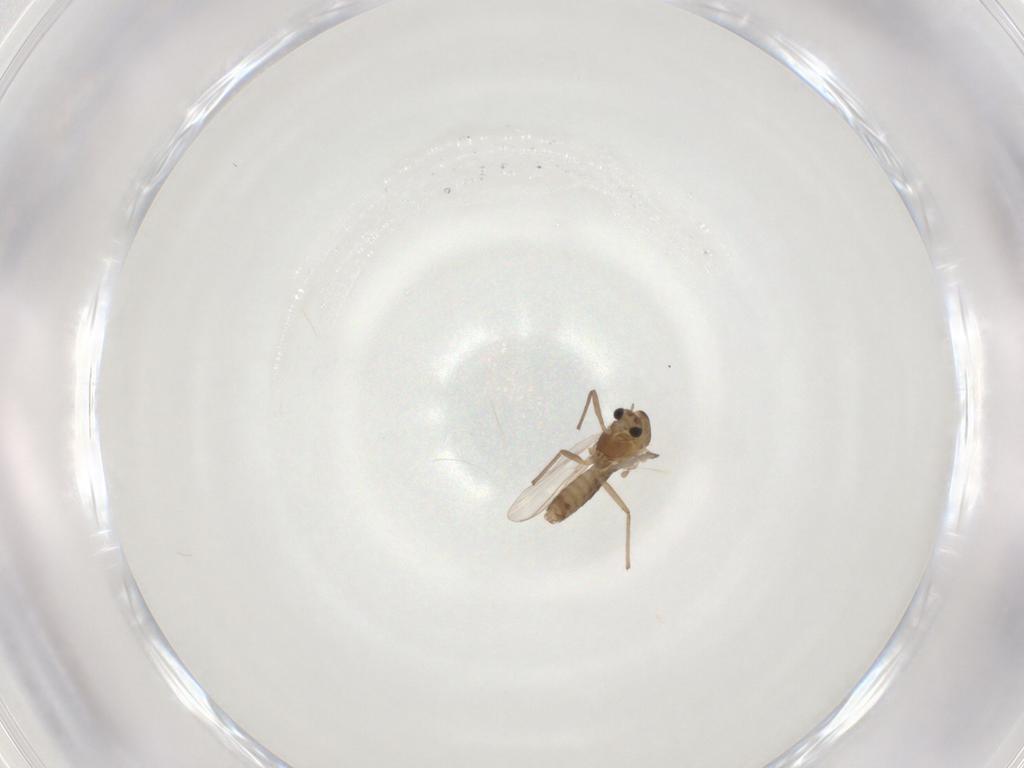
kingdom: Animalia
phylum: Arthropoda
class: Insecta
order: Diptera
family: Chironomidae
